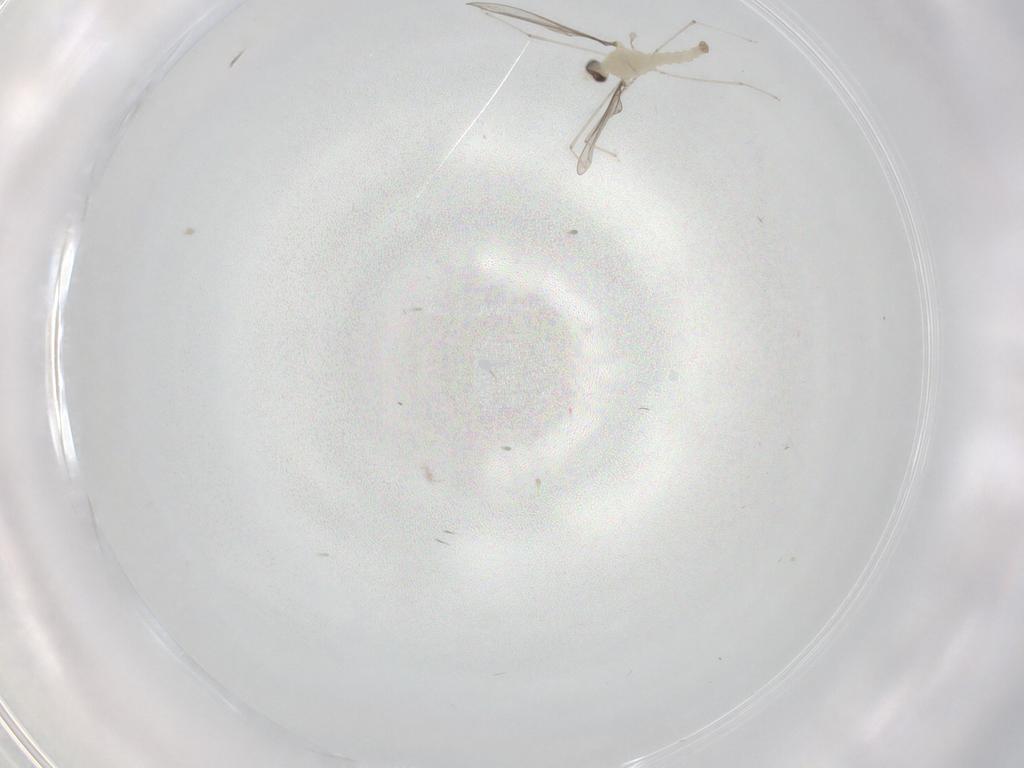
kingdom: Animalia
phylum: Arthropoda
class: Insecta
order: Diptera
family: Cecidomyiidae
